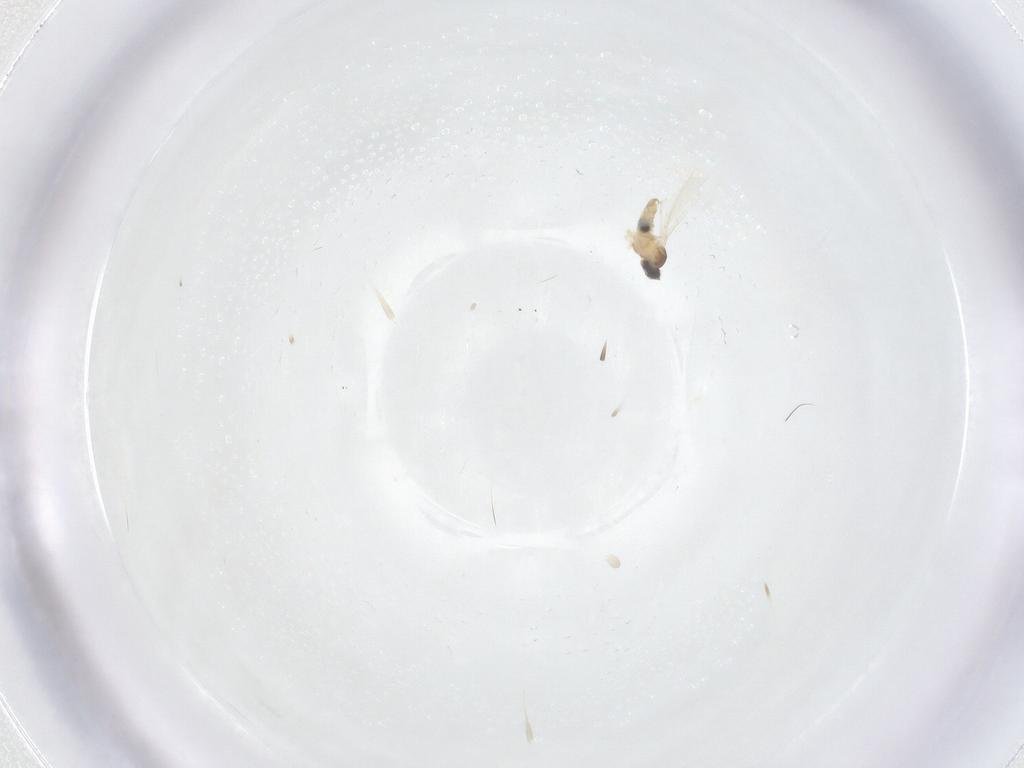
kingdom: Animalia
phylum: Arthropoda
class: Insecta
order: Diptera
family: Cecidomyiidae
